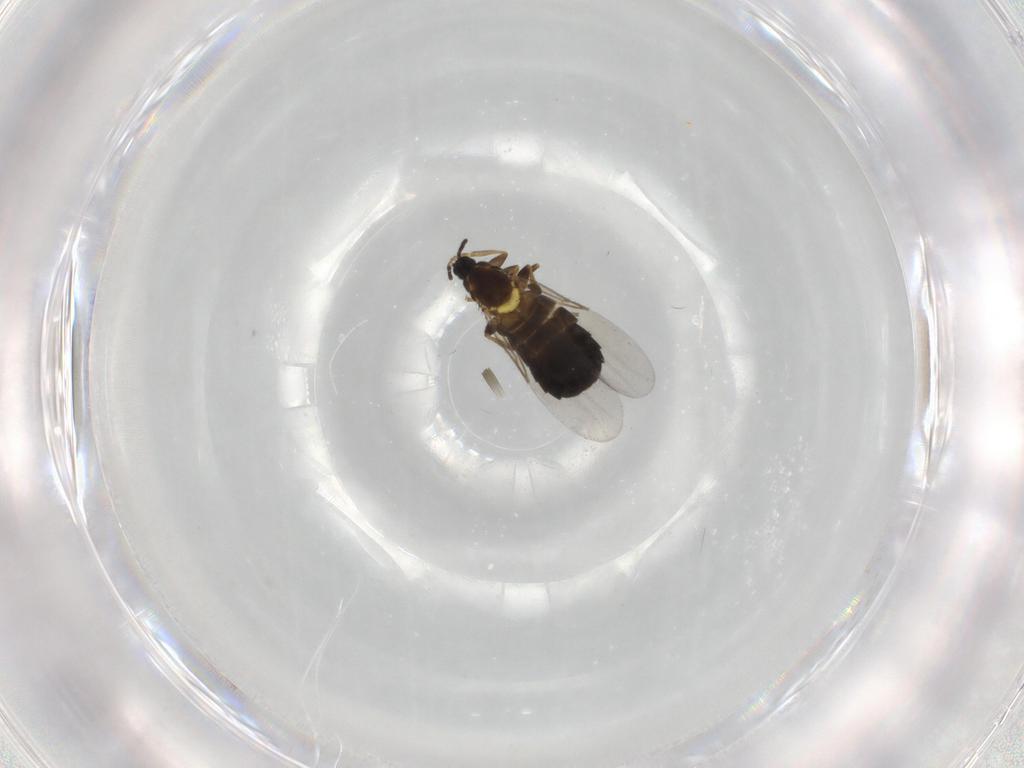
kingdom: Animalia
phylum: Arthropoda
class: Insecta
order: Diptera
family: Scatopsidae
